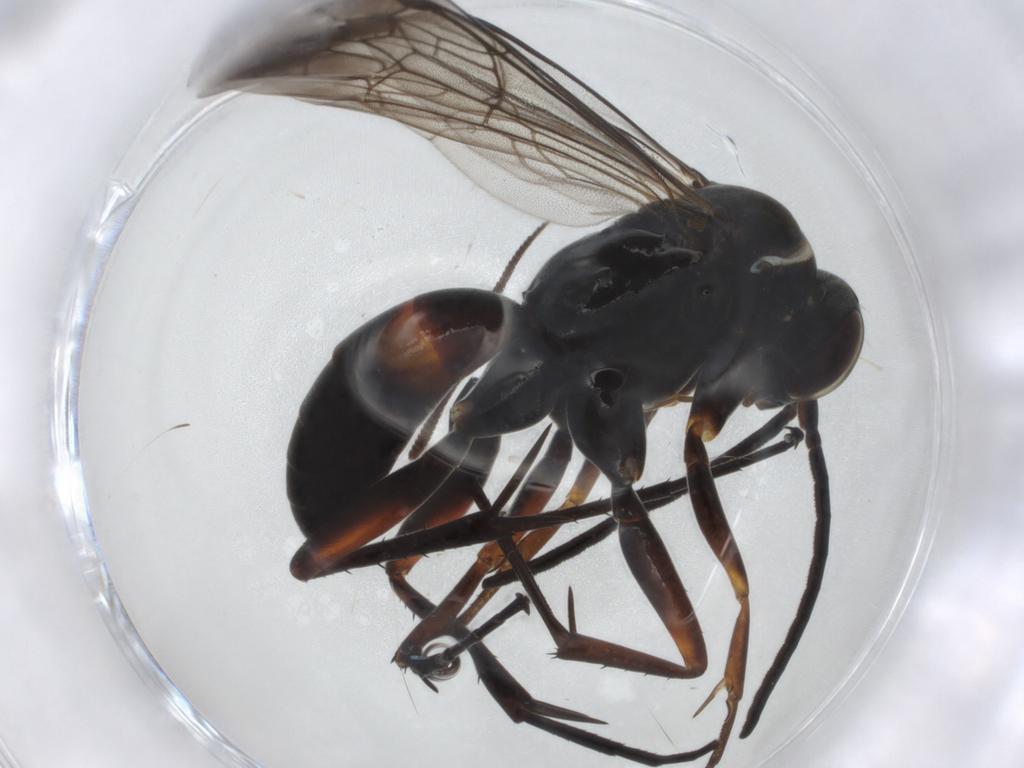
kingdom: Animalia
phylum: Arthropoda
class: Insecta
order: Hymenoptera
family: Pompilidae
